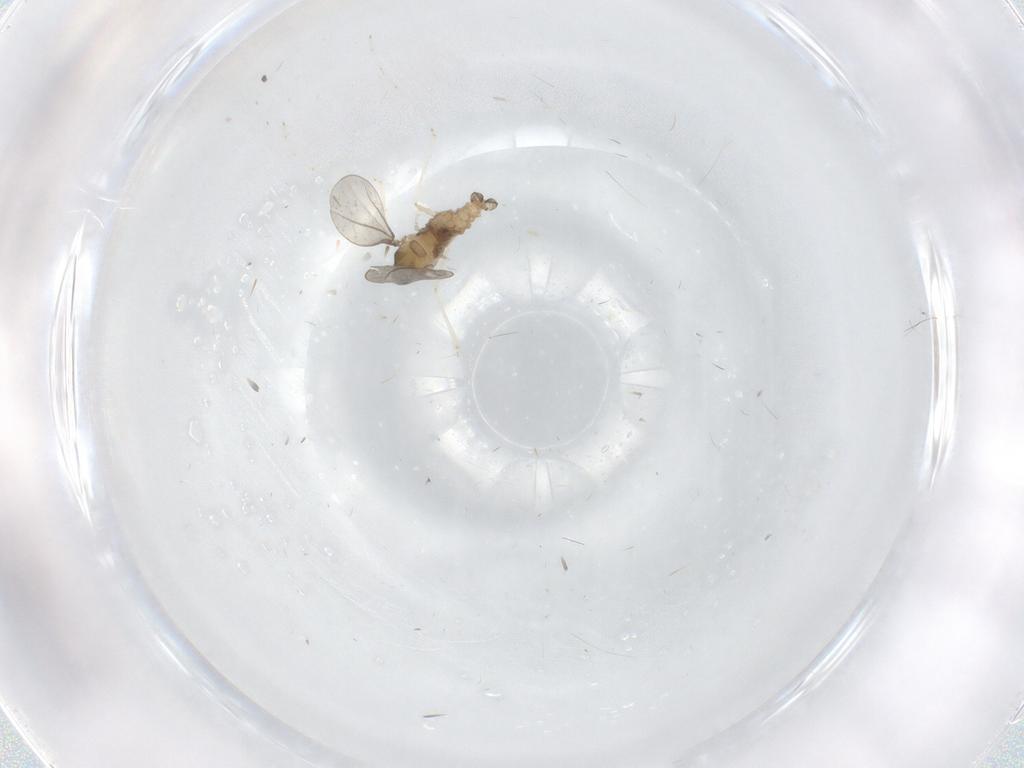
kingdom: Animalia
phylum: Arthropoda
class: Insecta
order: Diptera
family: Cecidomyiidae
